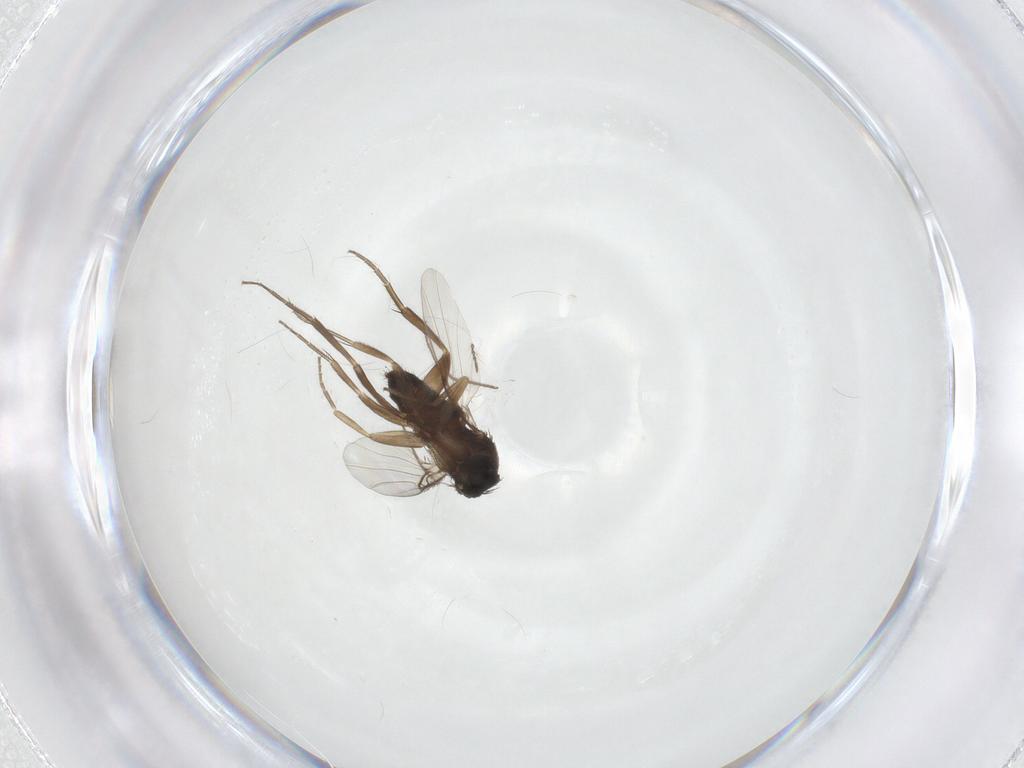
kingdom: Animalia
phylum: Arthropoda
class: Insecta
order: Diptera
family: Phoridae
